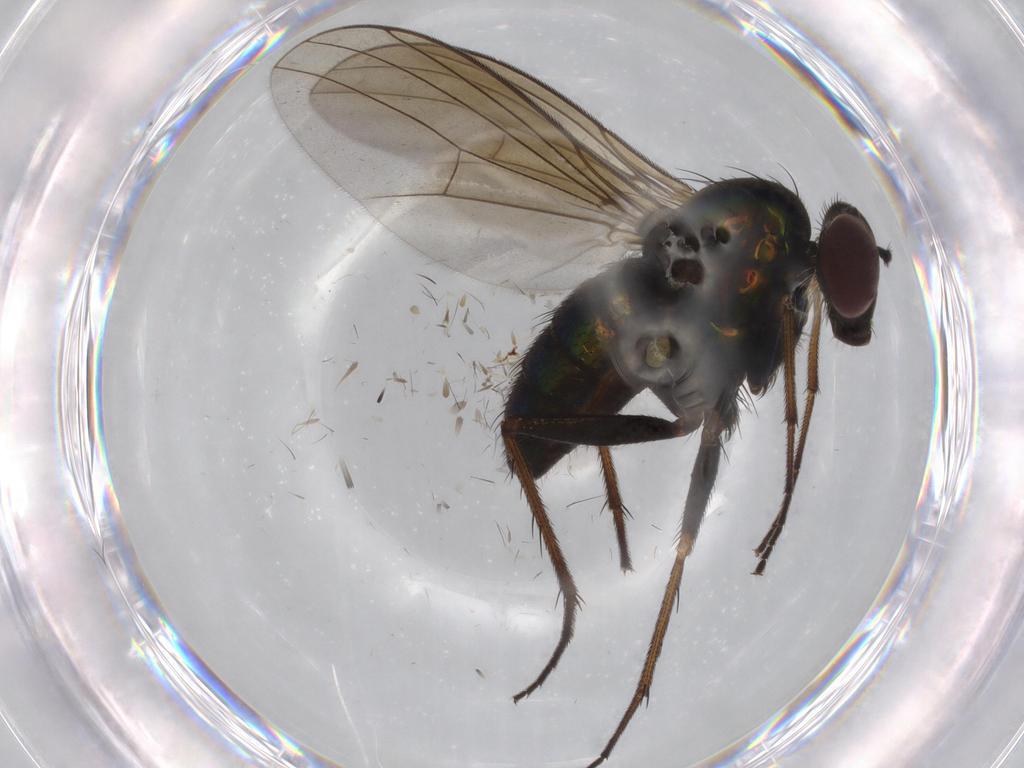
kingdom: Animalia
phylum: Arthropoda
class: Insecta
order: Diptera
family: Dolichopodidae
